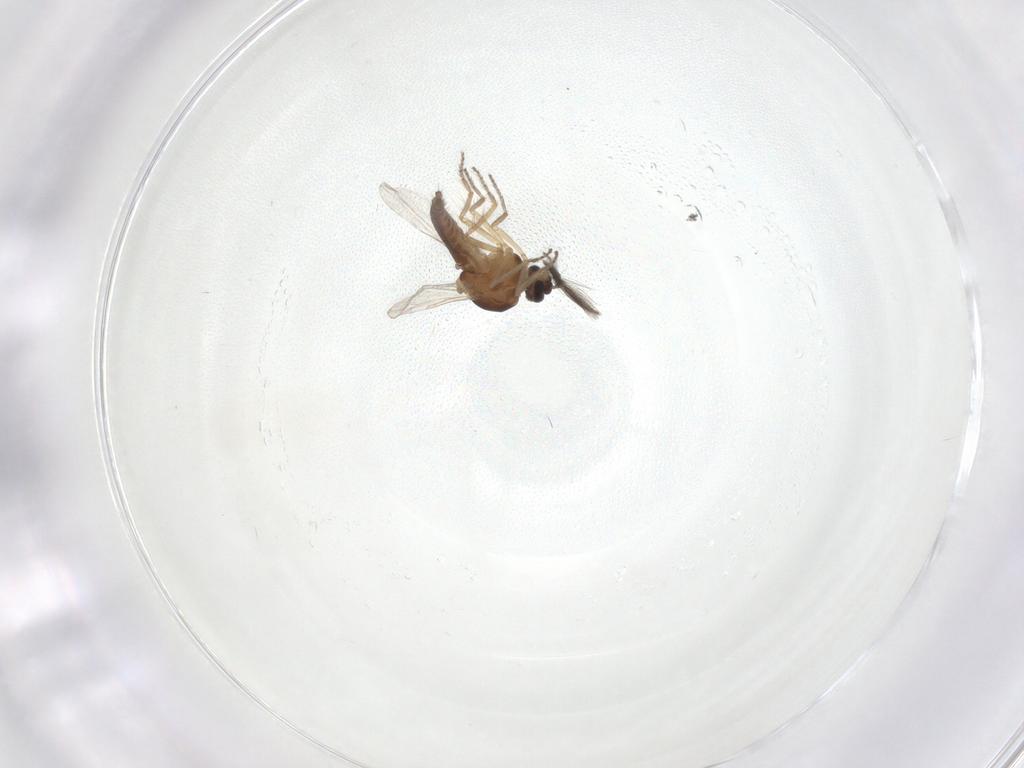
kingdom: Animalia
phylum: Arthropoda
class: Insecta
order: Diptera
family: Ceratopogonidae
